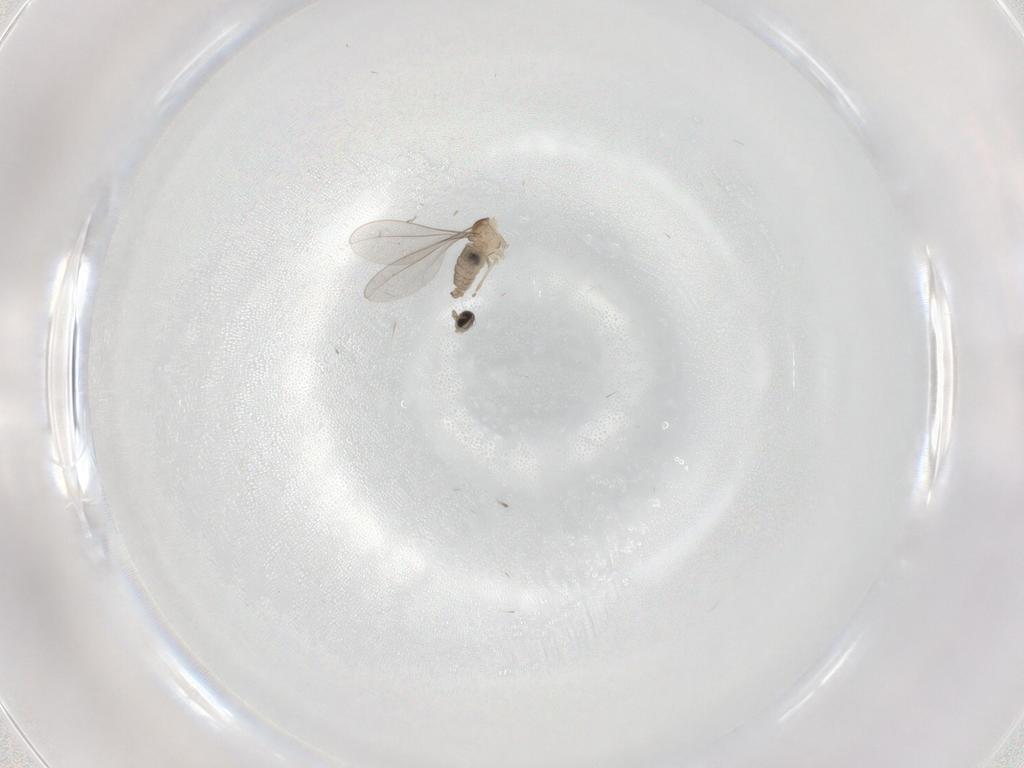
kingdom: Animalia
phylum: Arthropoda
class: Insecta
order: Diptera
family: Cecidomyiidae
